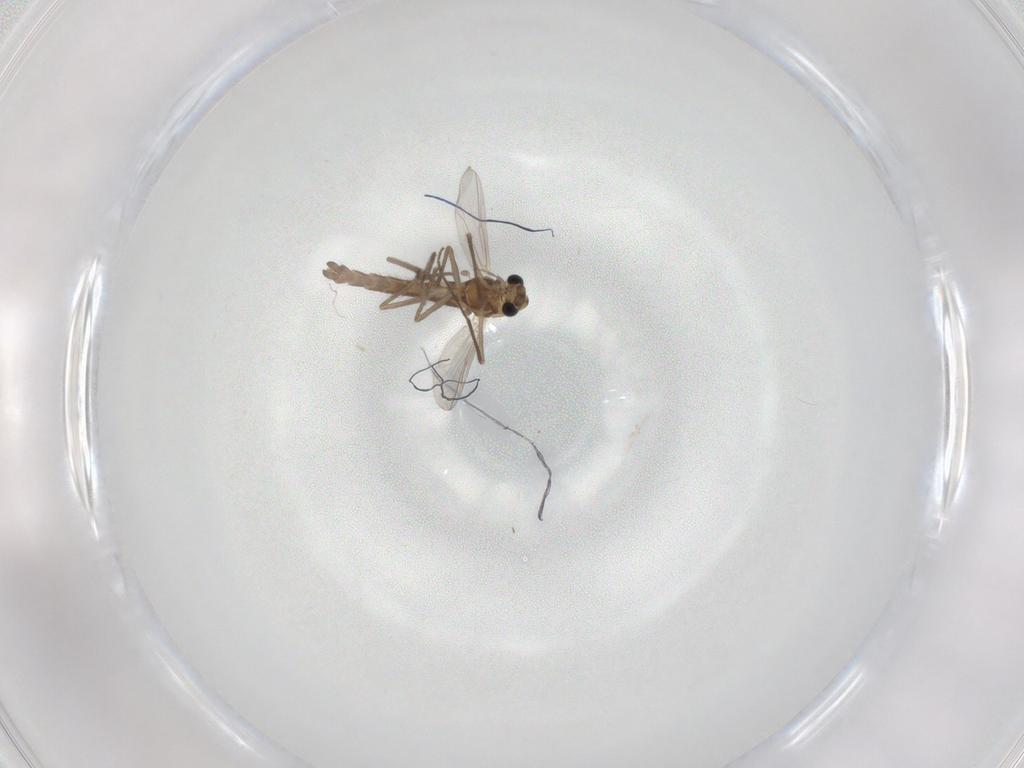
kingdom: Animalia
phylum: Arthropoda
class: Insecta
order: Diptera
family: Chironomidae
